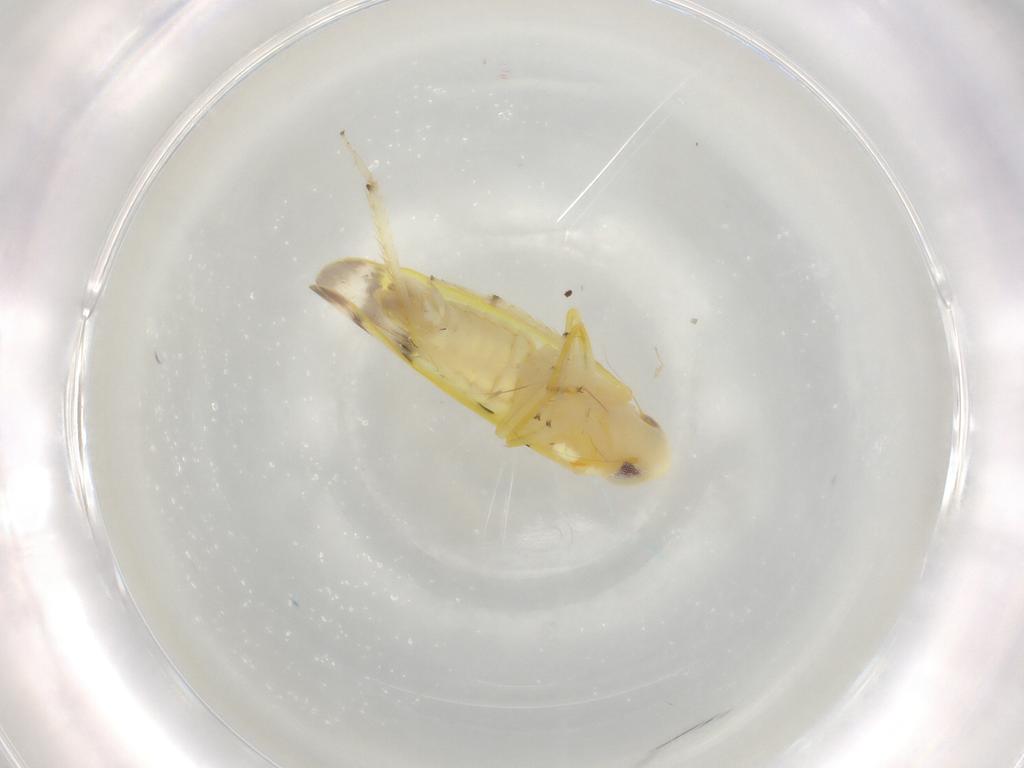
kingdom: Animalia
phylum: Arthropoda
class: Insecta
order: Hemiptera
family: Cicadellidae
